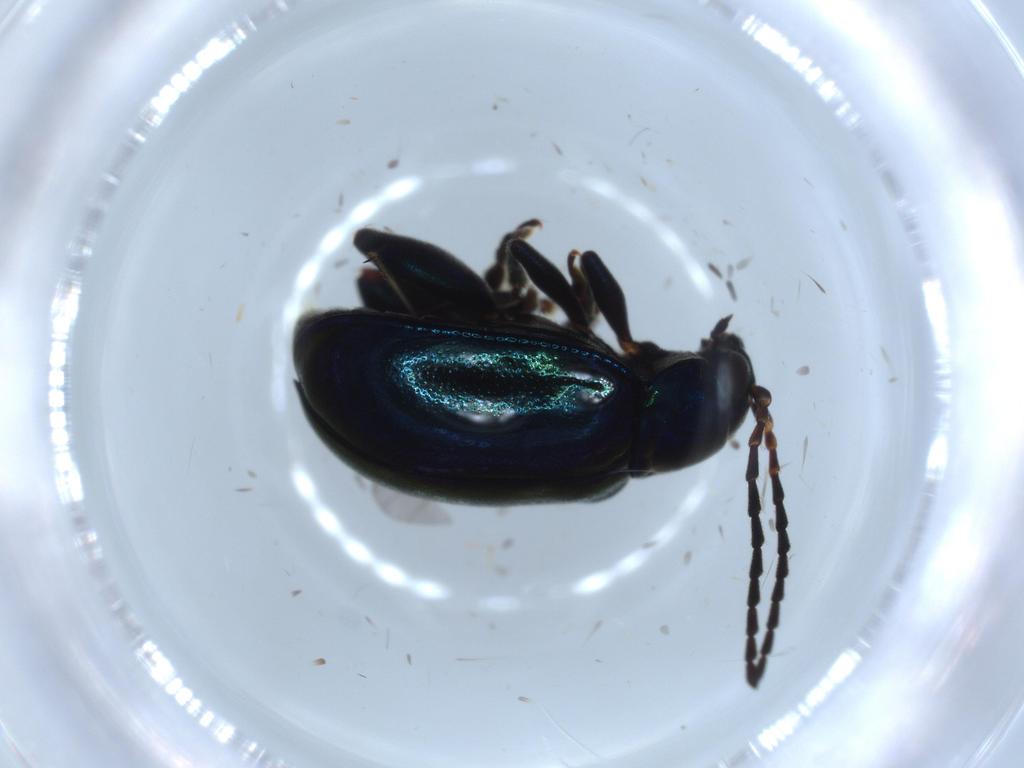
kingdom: Animalia
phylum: Arthropoda
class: Insecta
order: Coleoptera
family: Chrysomelidae
